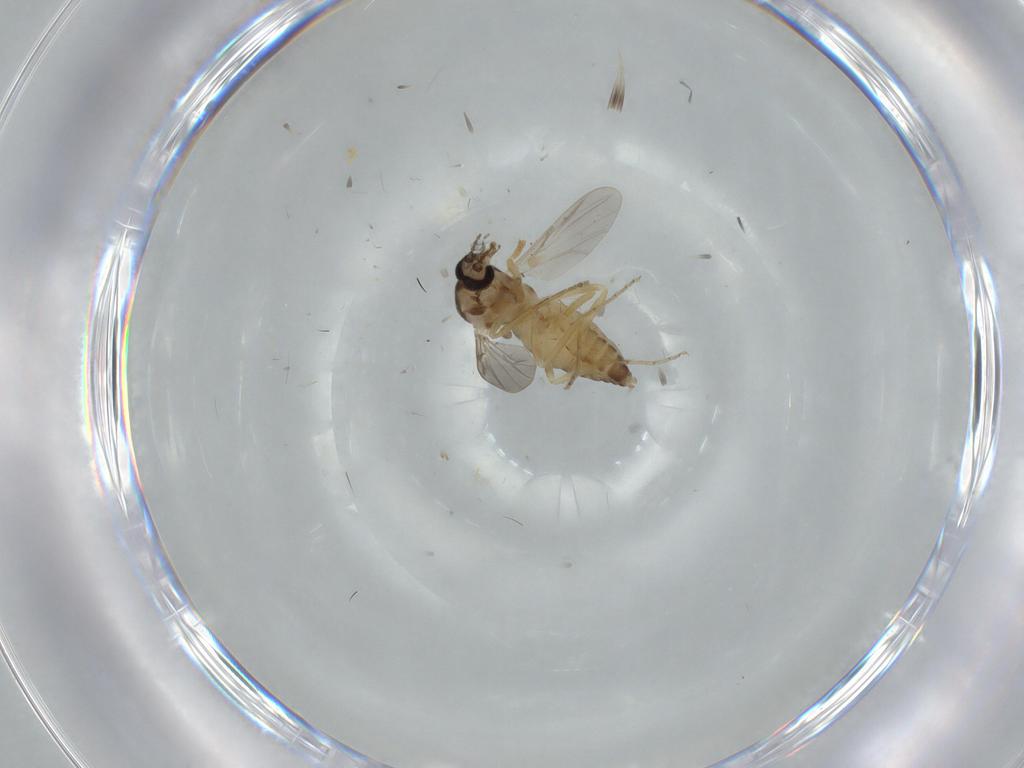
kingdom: Animalia
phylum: Arthropoda
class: Insecta
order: Diptera
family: Ceratopogonidae
